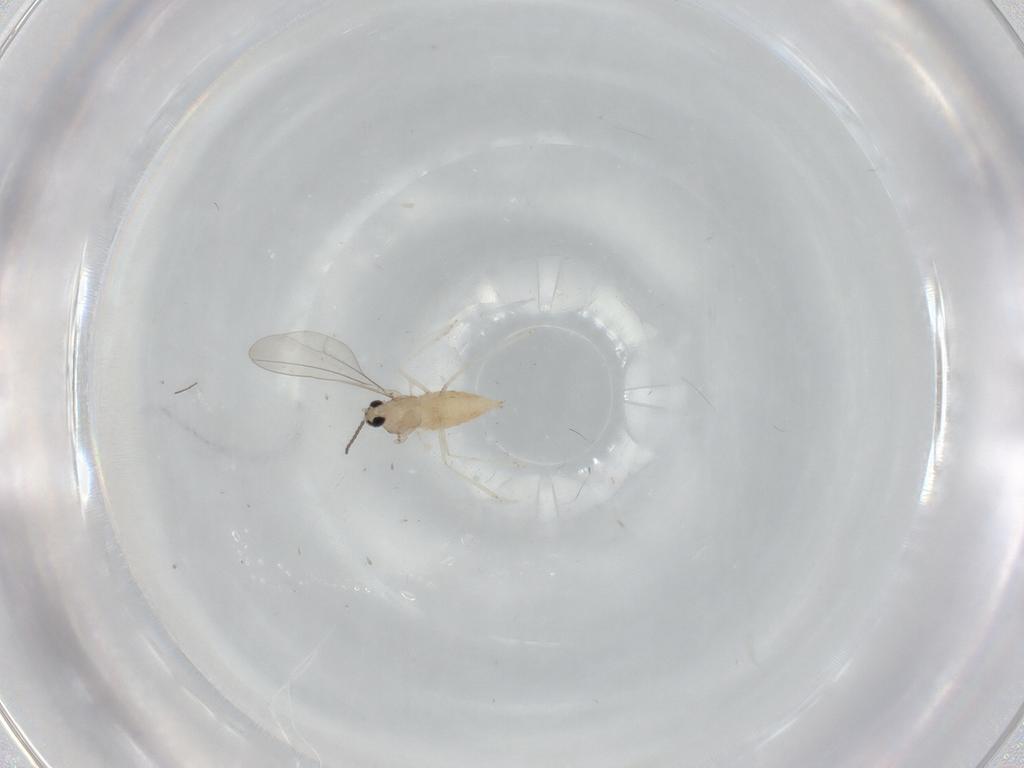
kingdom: Animalia
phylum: Arthropoda
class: Insecta
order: Diptera
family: Cecidomyiidae
